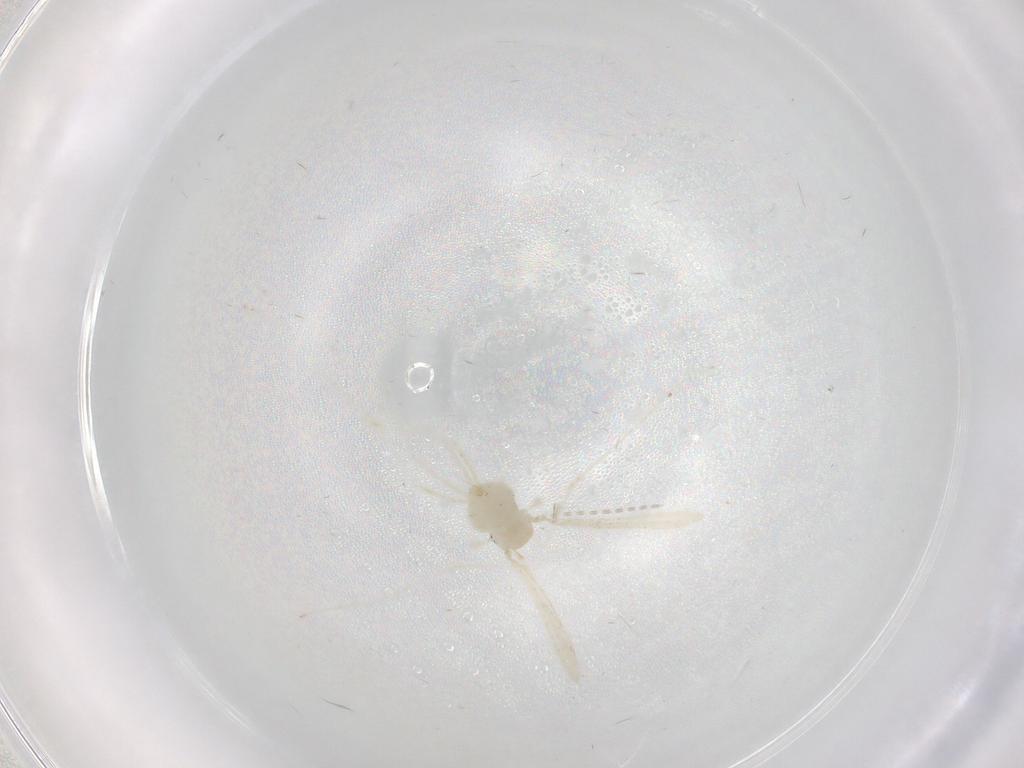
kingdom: Animalia
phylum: Arthropoda
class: Insecta
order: Diptera
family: Cecidomyiidae
